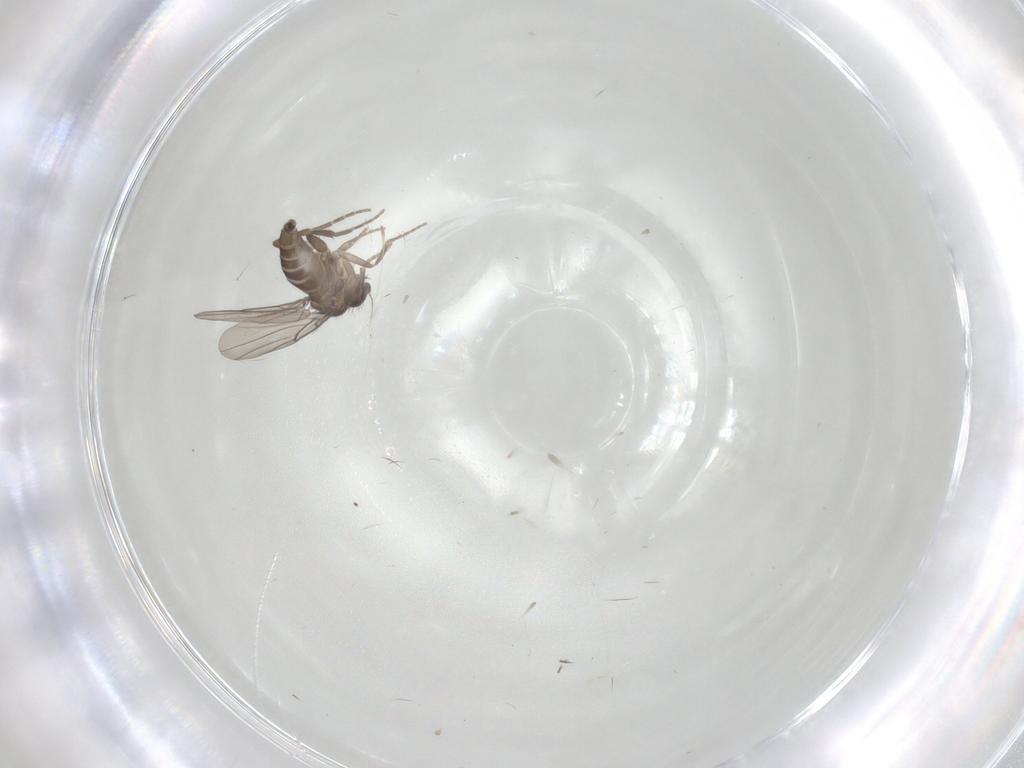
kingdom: Animalia
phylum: Arthropoda
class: Insecta
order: Diptera
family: Phoridae
